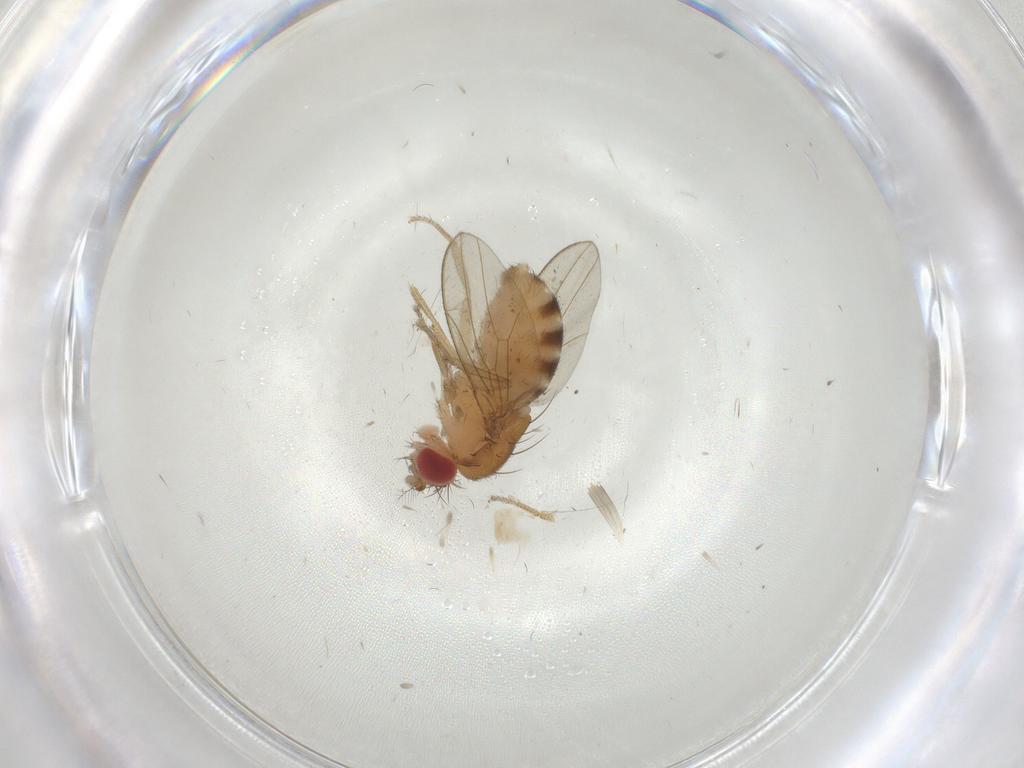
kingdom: Animalia
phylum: Arthropoda
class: Insecta
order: Diptera
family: Drosophilidae
